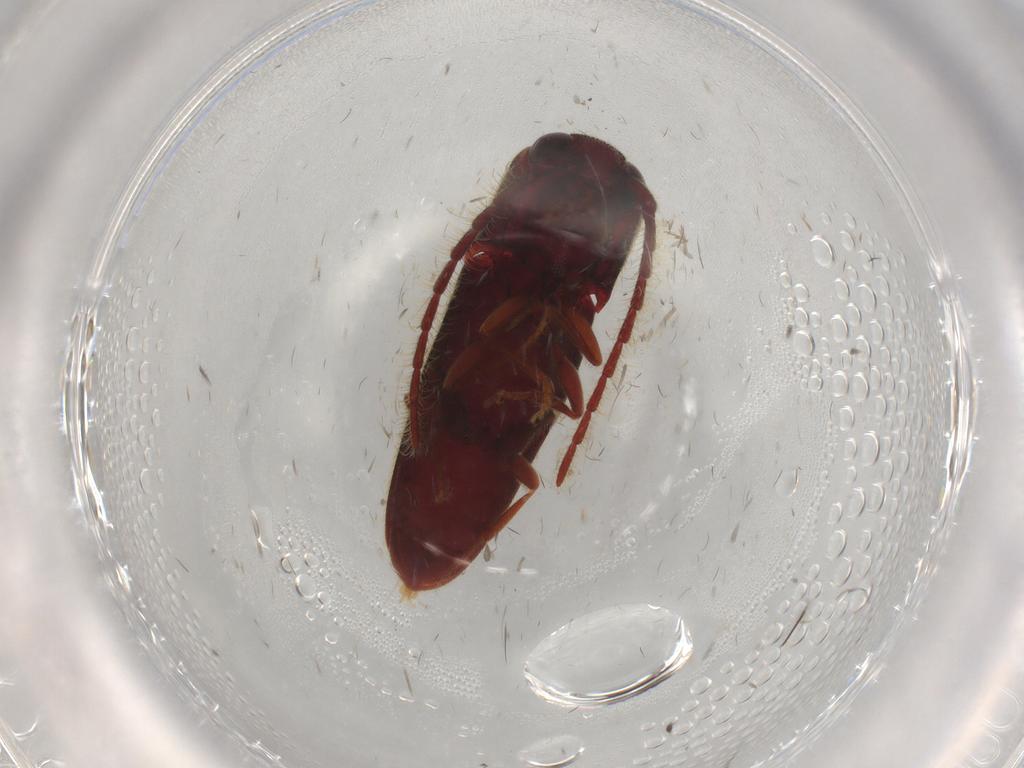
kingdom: Animalia
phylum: Arthropoda
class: Insecta
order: Coleoptera
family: Eucnemidae
